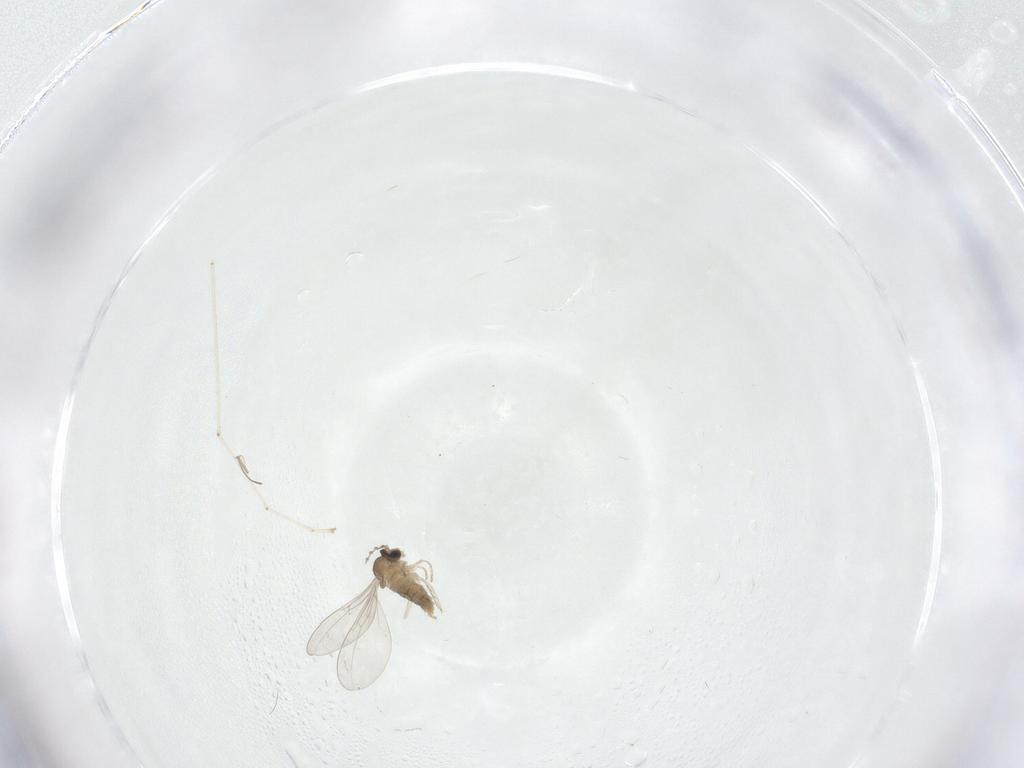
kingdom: Animalia
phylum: Arthropoda
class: Insecta
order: Diptera
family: Cecidomyiidae
